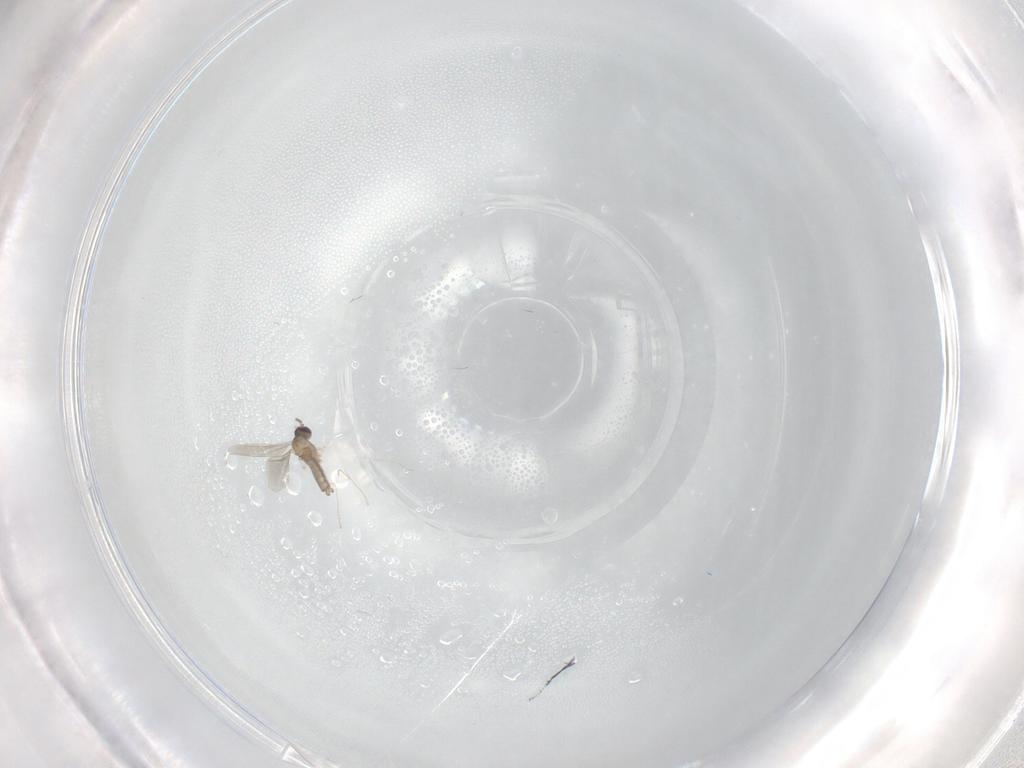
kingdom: Animalia
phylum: Arthropoda
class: Insecta
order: Diptera
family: Cecidomyiidae
